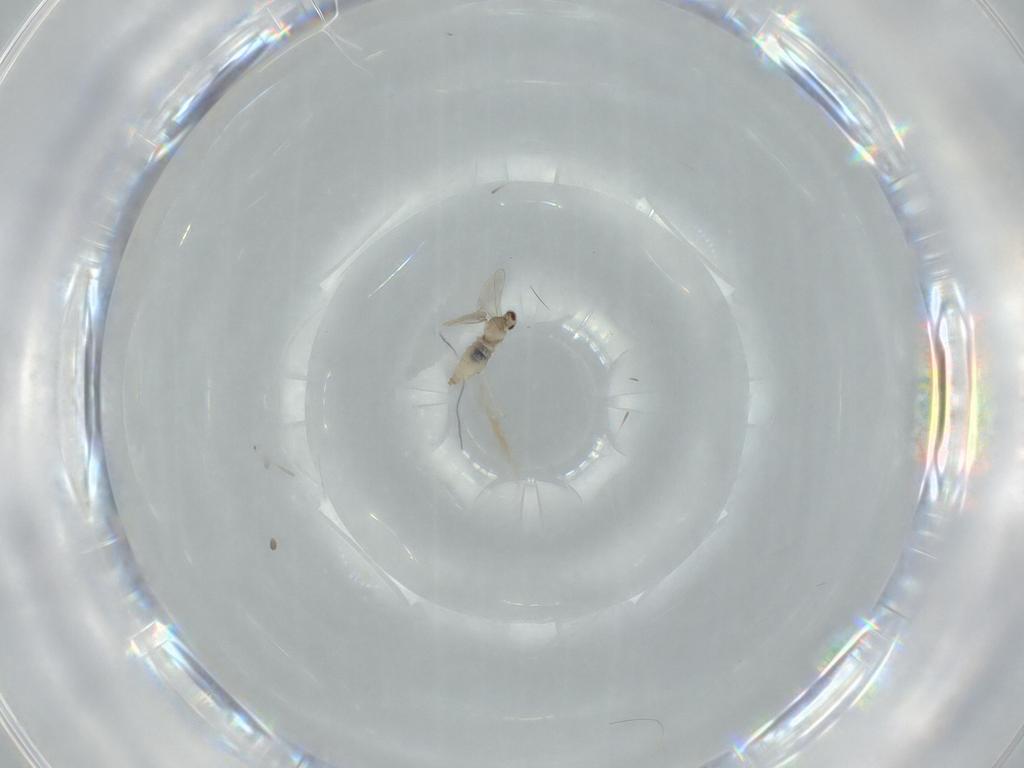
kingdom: Animalia
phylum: Arthropoda
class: Insecta
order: Diptera
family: Cecidomyiidae
